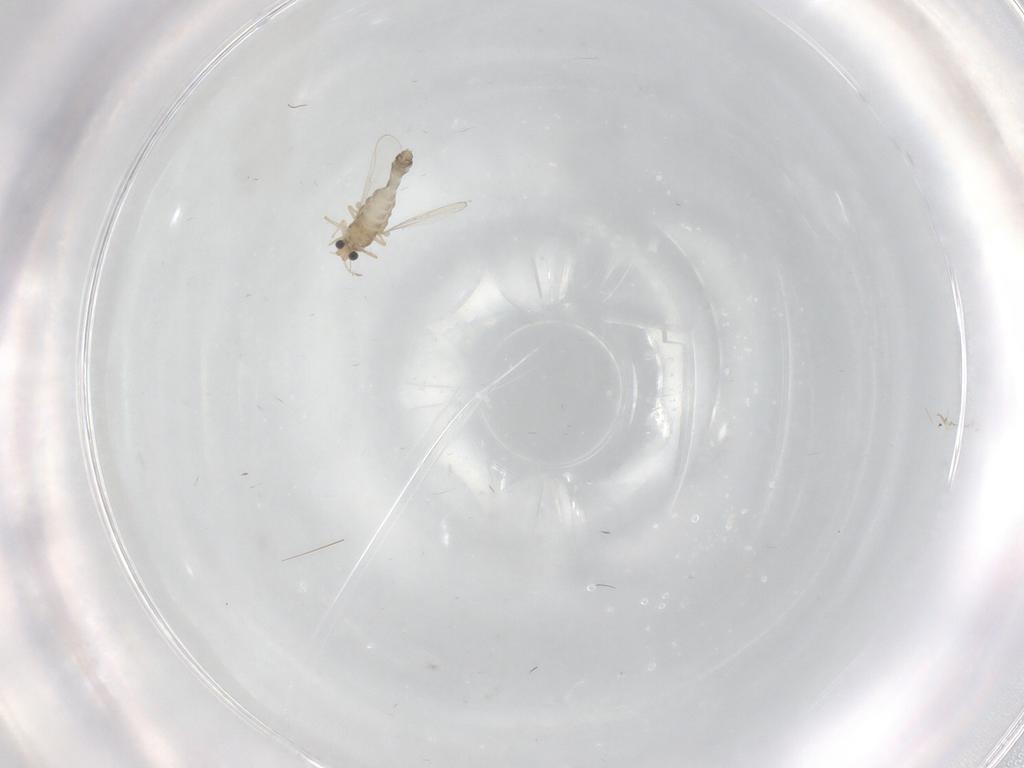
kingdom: Animalia
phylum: Arthropoda
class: Insecta
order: Diptera
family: Chironomidae
